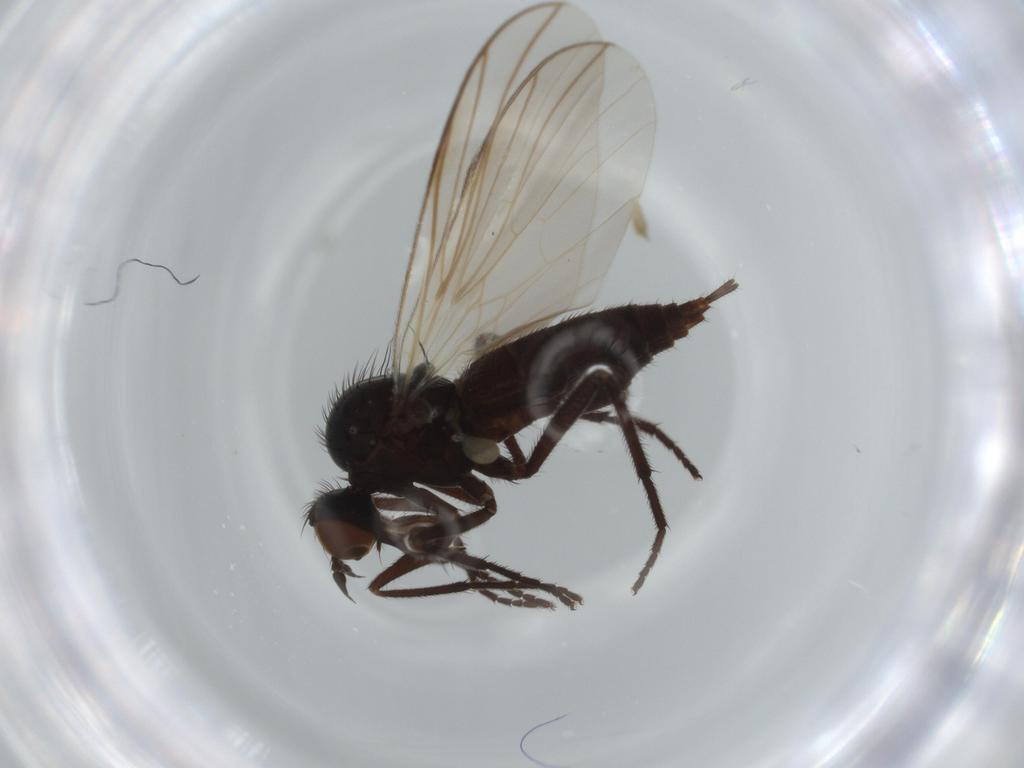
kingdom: Animalia
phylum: Arthropoda
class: Insecta
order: Diptera
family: Empididae
